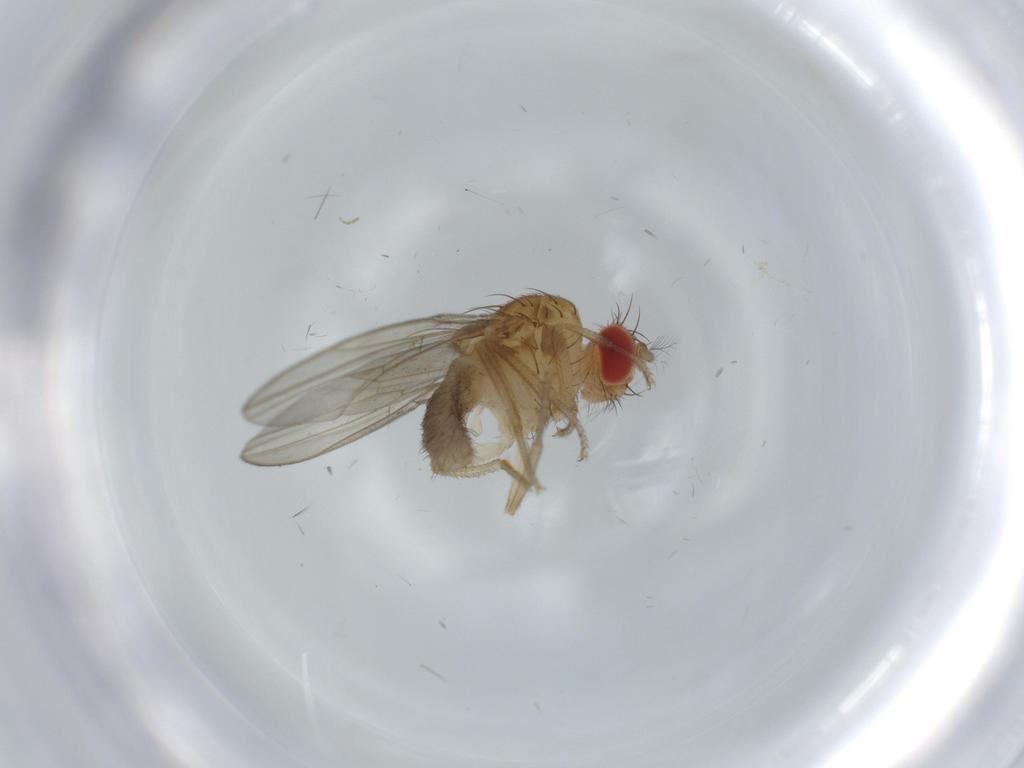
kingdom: Animalia
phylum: Arthropoda
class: Insecta
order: Diptera
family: Drosophilidae
